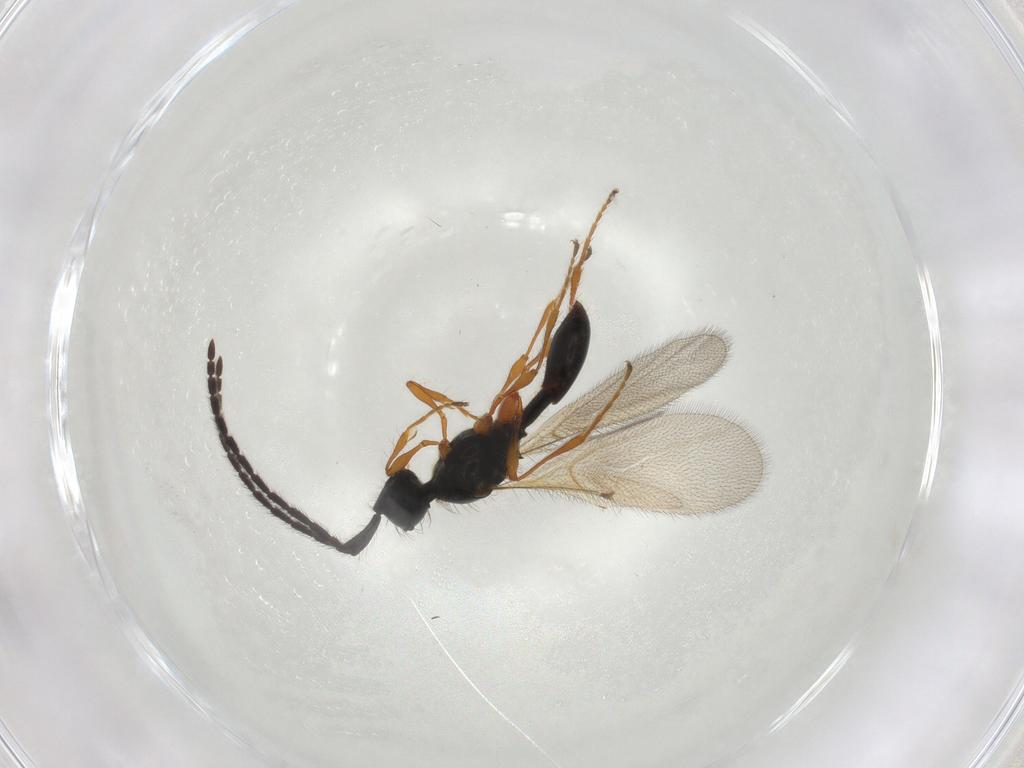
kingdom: Animalia
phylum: Arthropoda
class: Insecta
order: Hymenoptera
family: Diapriidae
